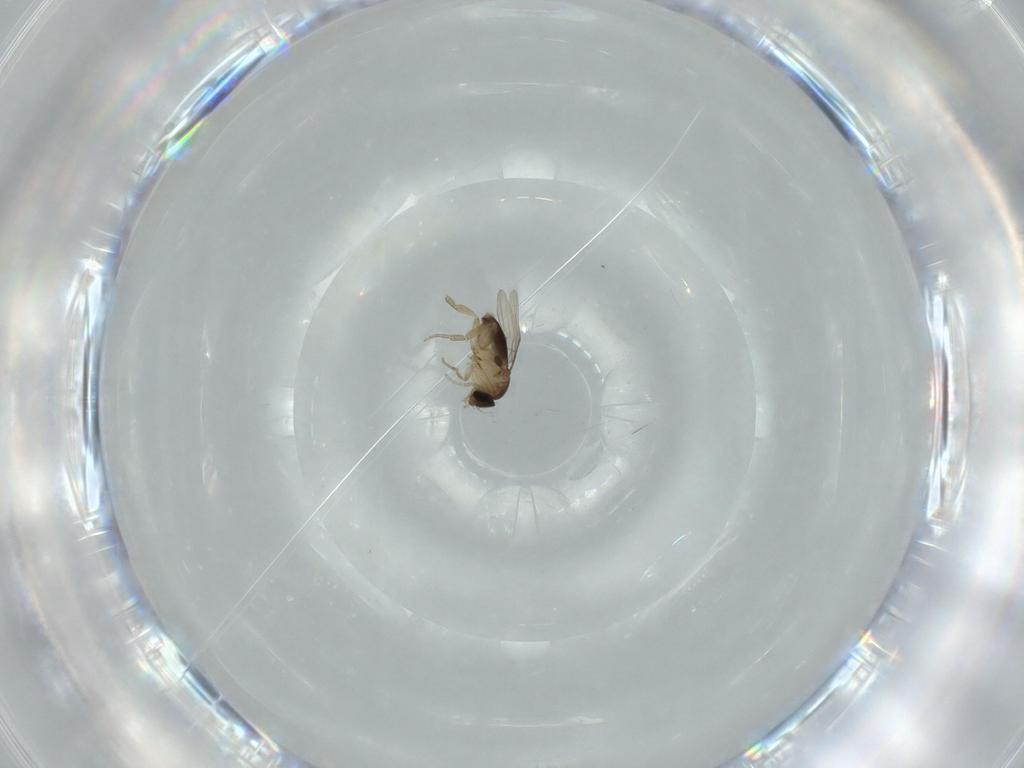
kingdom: Animalia
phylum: Arthropoda
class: Insecta
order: Diptera
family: Phoridae
